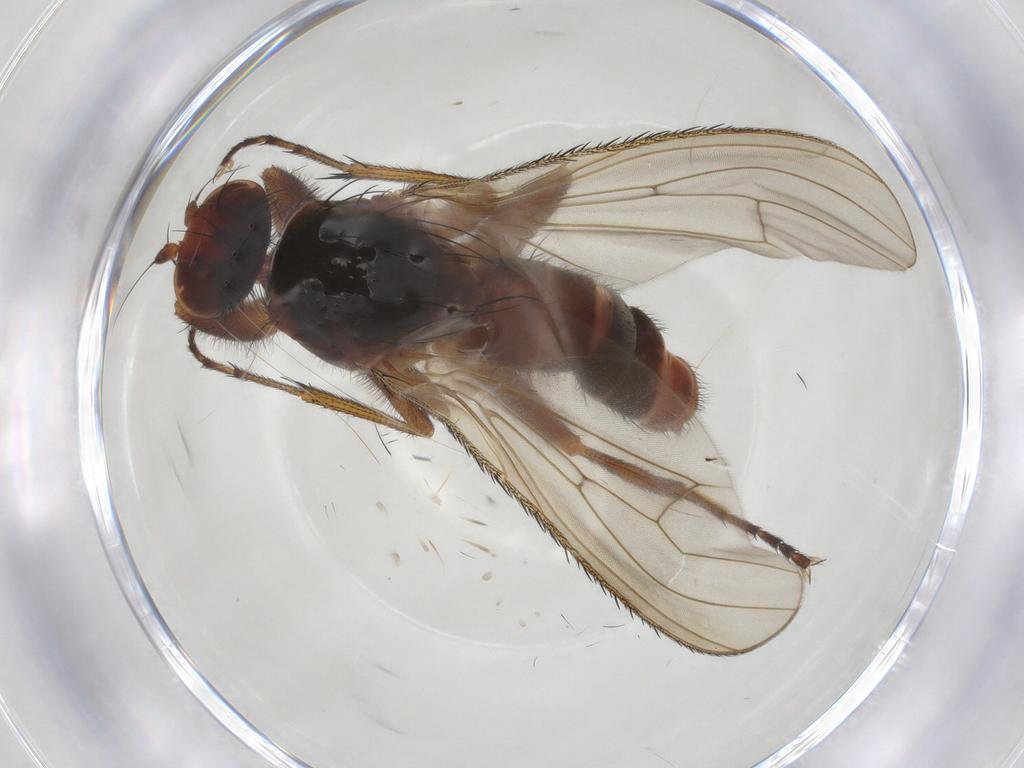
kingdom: Animalia
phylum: Arthropoda
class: Insecta
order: Diptera
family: Heleomyzidae
